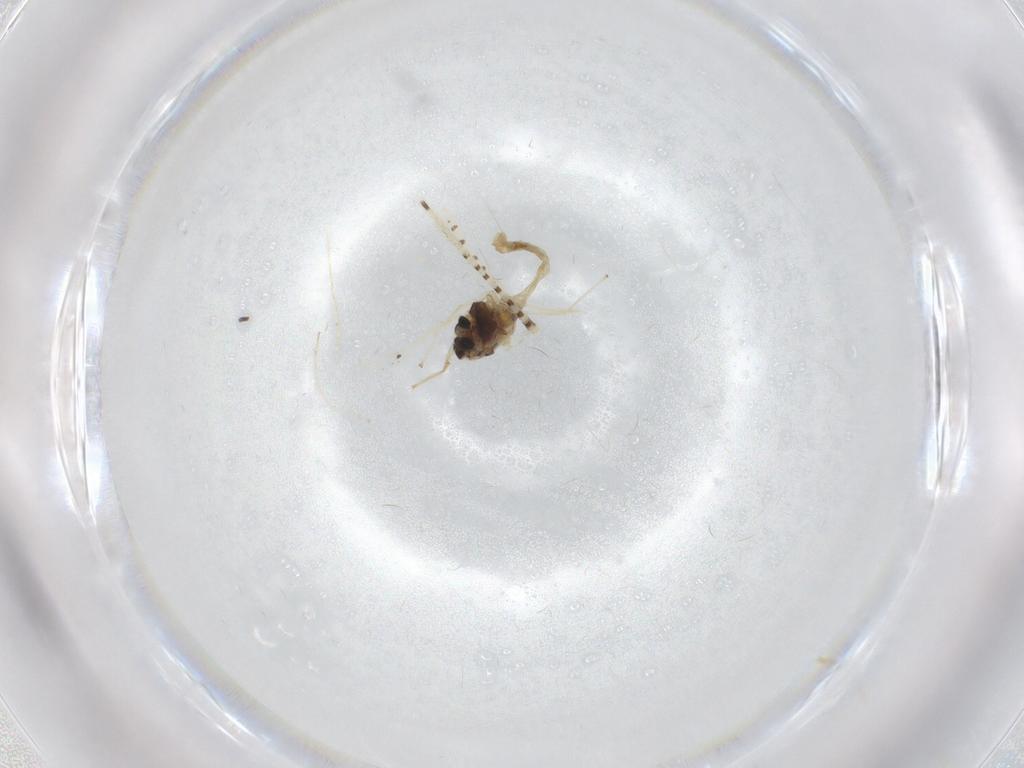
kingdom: Animalia
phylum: Arthropoda
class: Insecta
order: Diptera
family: Chironomidae
